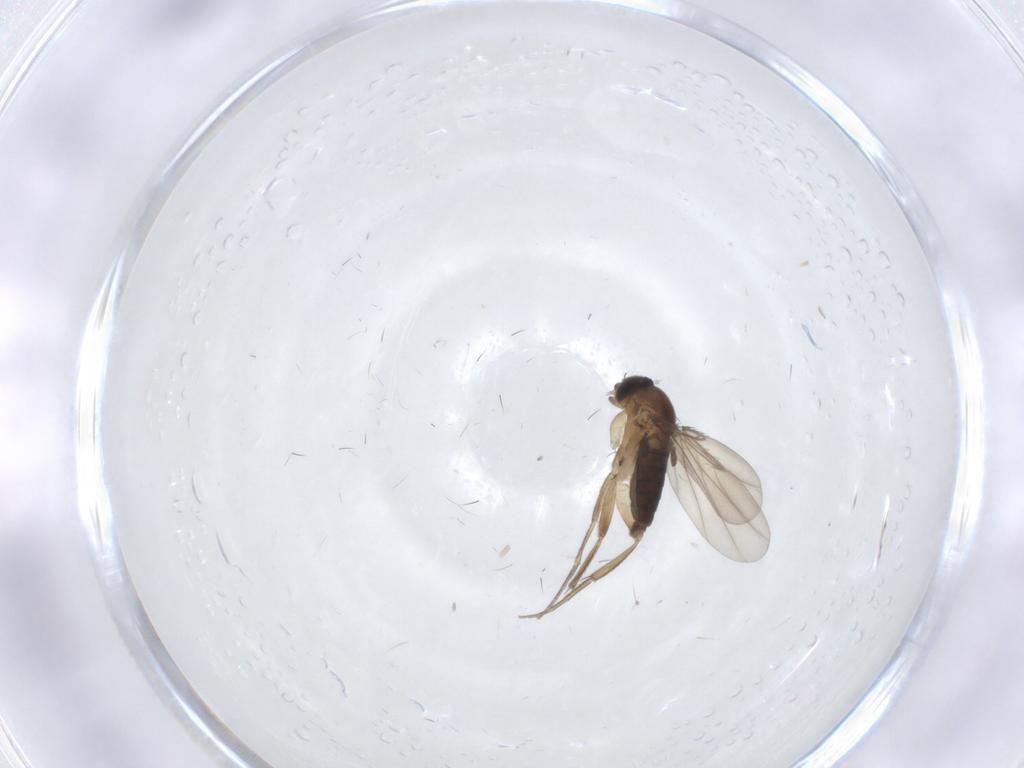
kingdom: Animalia
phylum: Arthropoda
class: Insecta
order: Diptera
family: Phoridae
